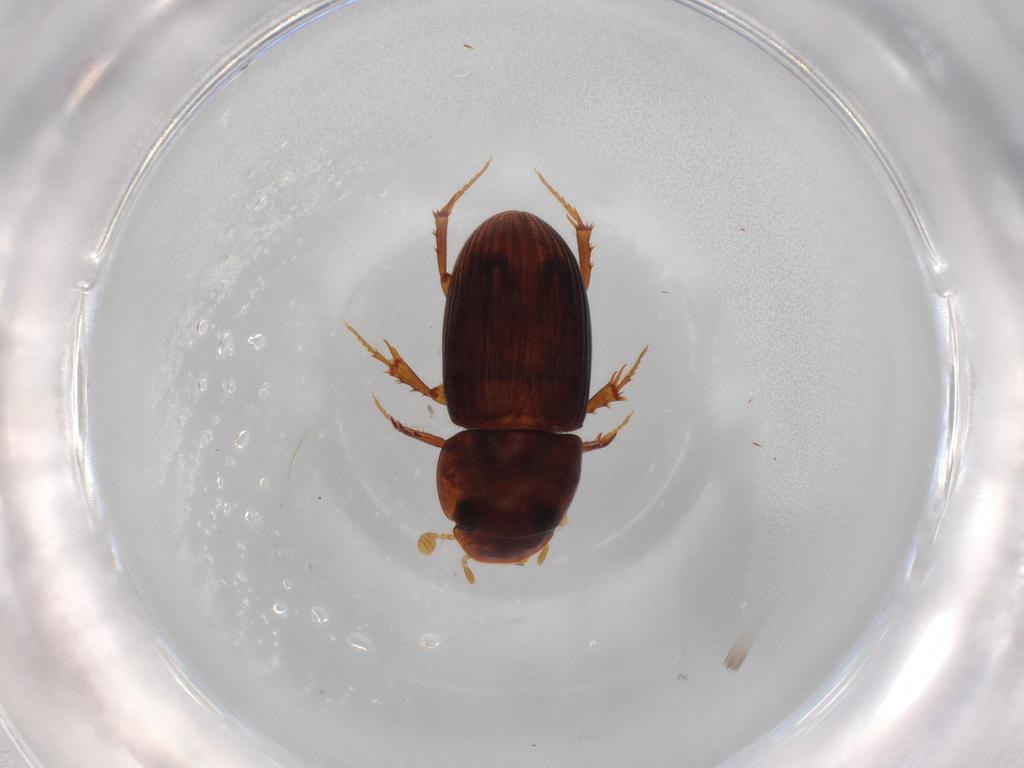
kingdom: Animalia
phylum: Arthropoda
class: Insecta
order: Coleoptera
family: Scarabaeidae
